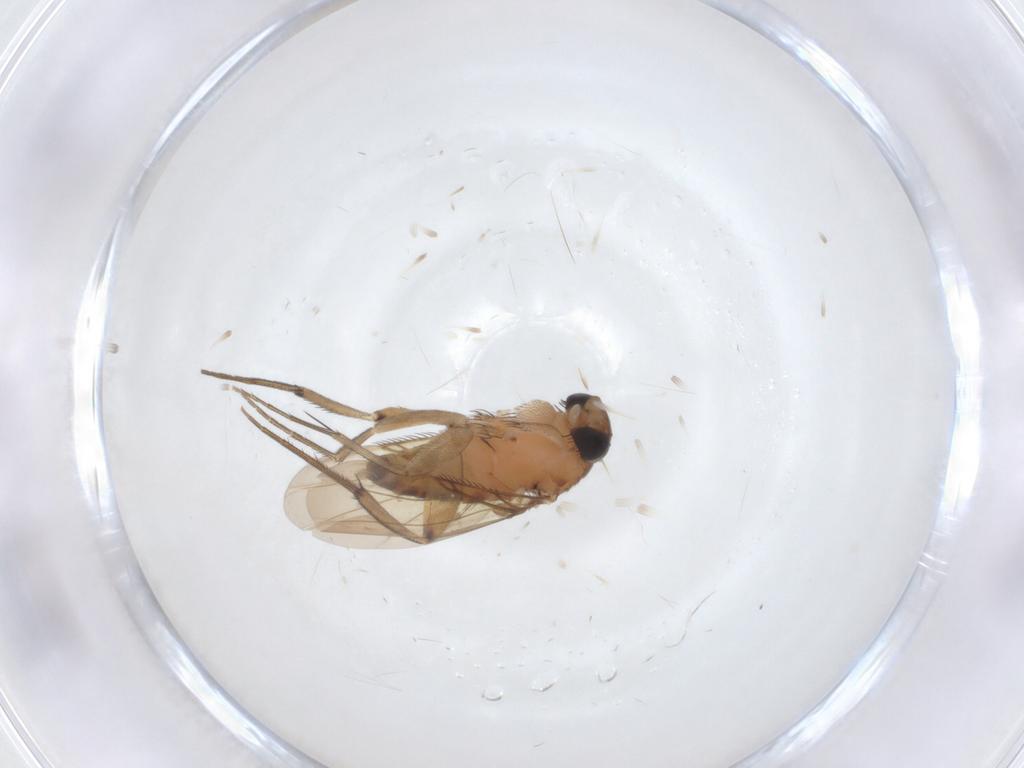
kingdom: Animalia
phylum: Arthropoda
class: Insecta
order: Diptera
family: Phoridae
